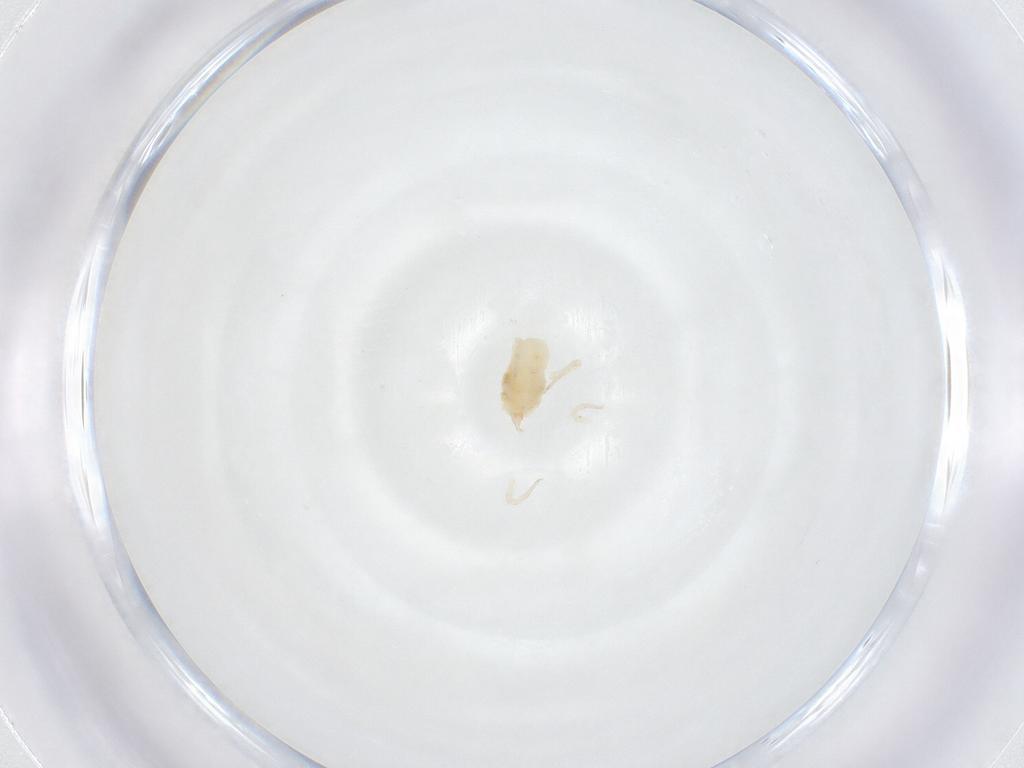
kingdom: Animalia
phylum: Arthropoda
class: Arachnida
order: Trombidiformes
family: Bdellidae
